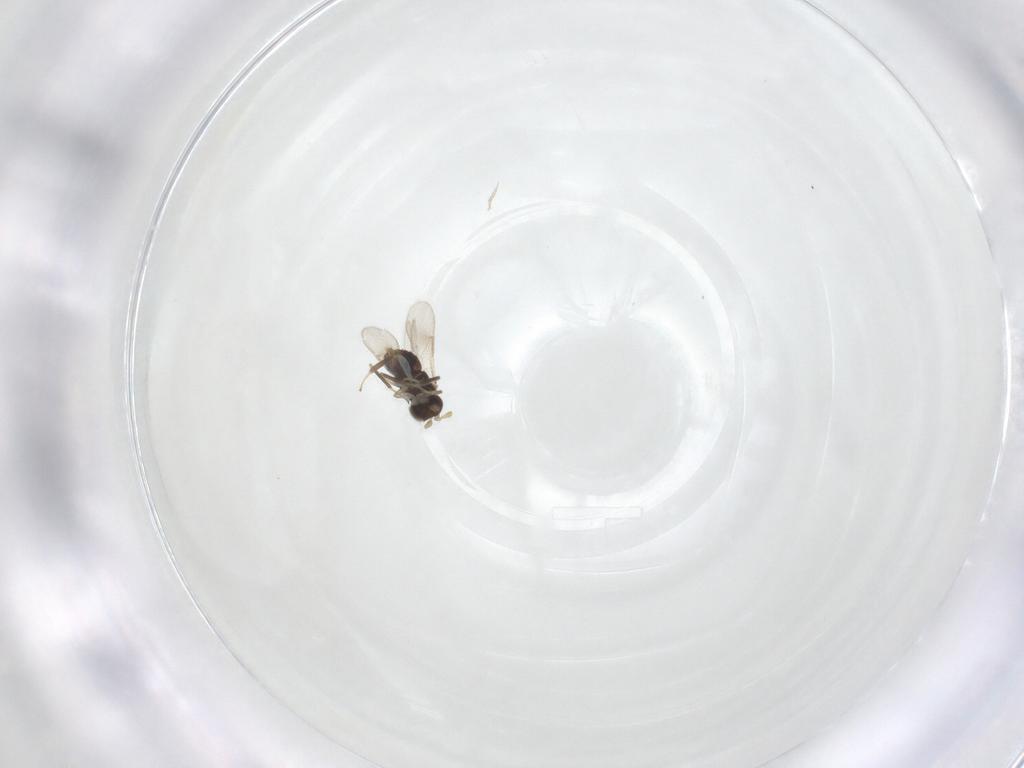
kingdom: Animalia
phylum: Arthropoda
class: Insecta
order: Hymenoptera
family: Aphelinidae
